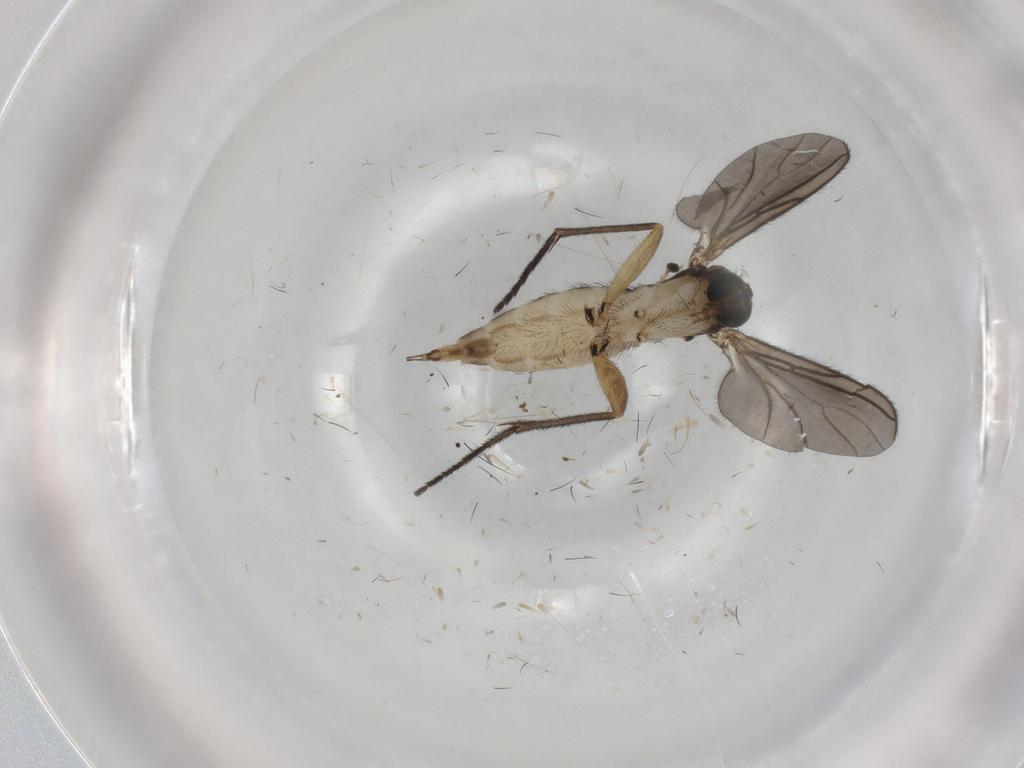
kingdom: Animalia
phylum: Arthropoda
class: Insecta
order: Diptera
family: Sciaridae
